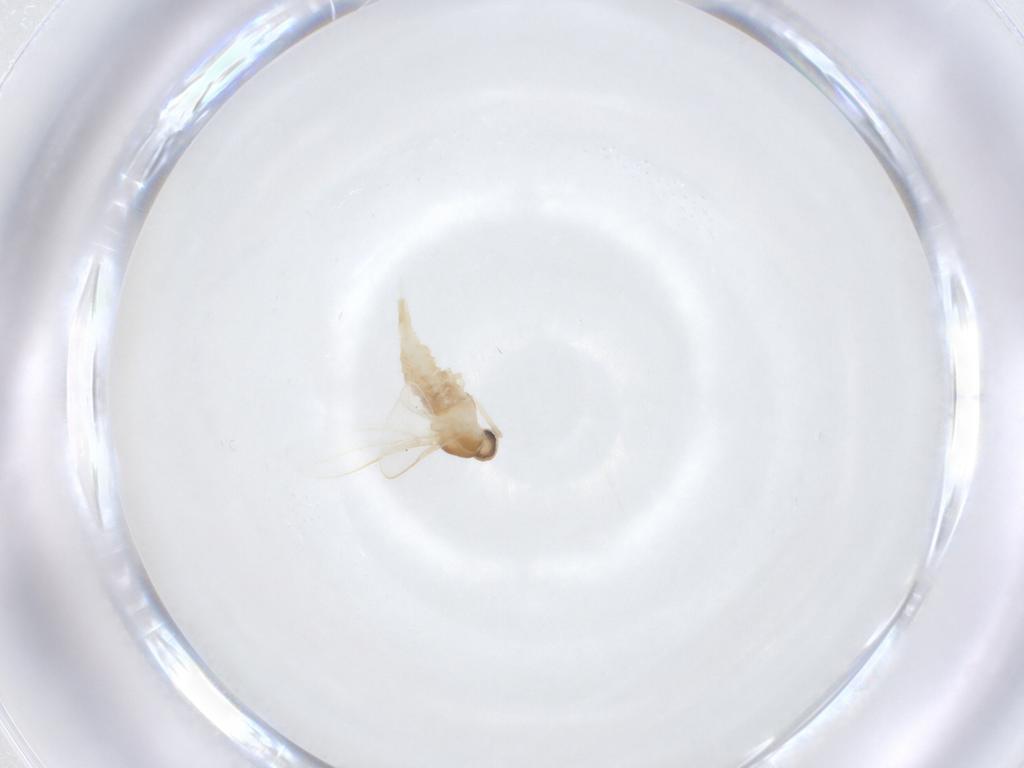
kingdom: Animalia
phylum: Arthropoda
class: Insecta
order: Diptera
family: Cecidomyiidae
